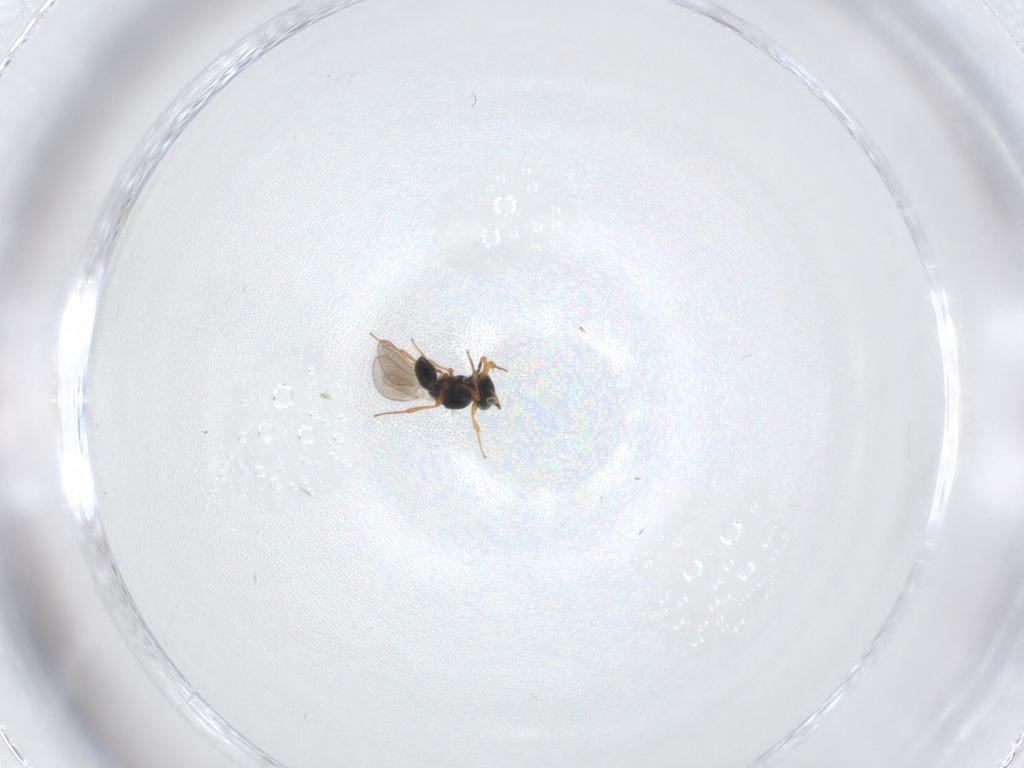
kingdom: Animalia
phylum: Arthropoda
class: Insecta
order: Hymenoptera
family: Platygastridae
